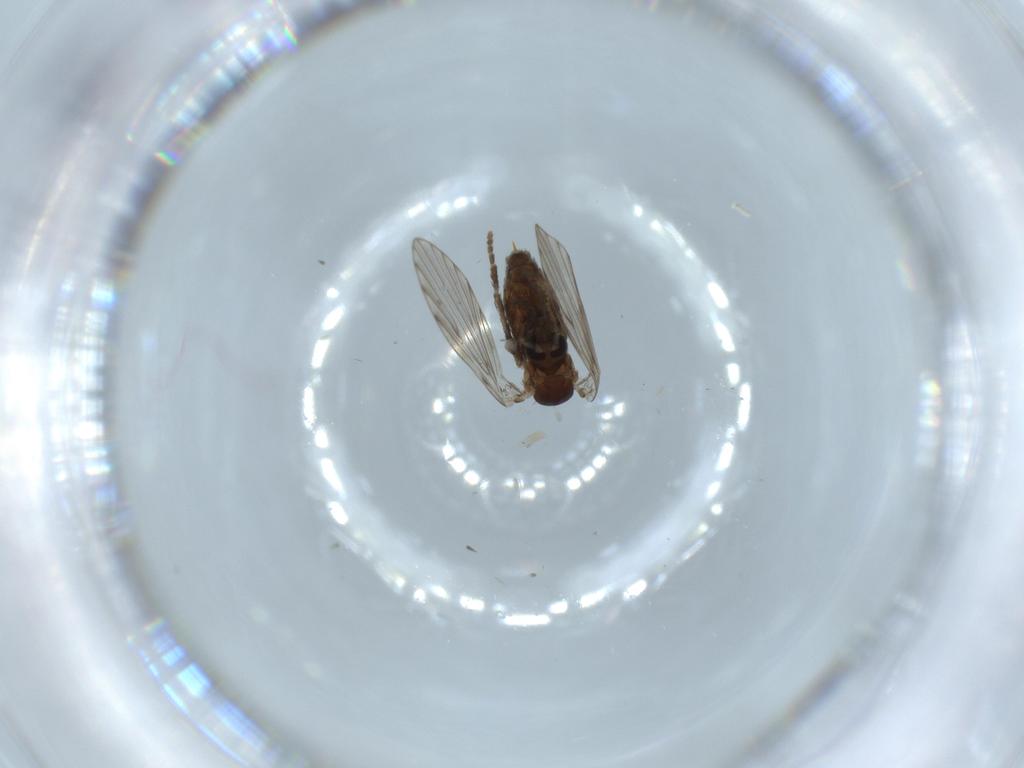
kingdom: Animalia
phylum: Arthropoda
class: Insecta
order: Diptera
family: Psychodidae
